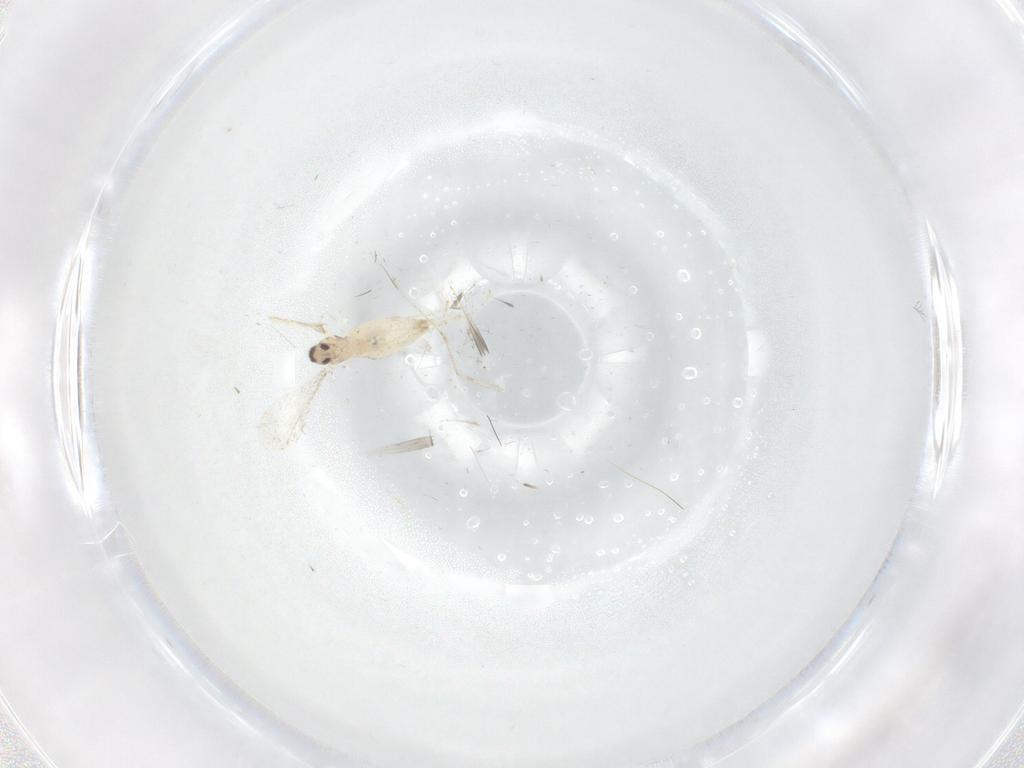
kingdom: Animalia
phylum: Arthropoda
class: Insecta
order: Diptera
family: Cecidomyiidae
